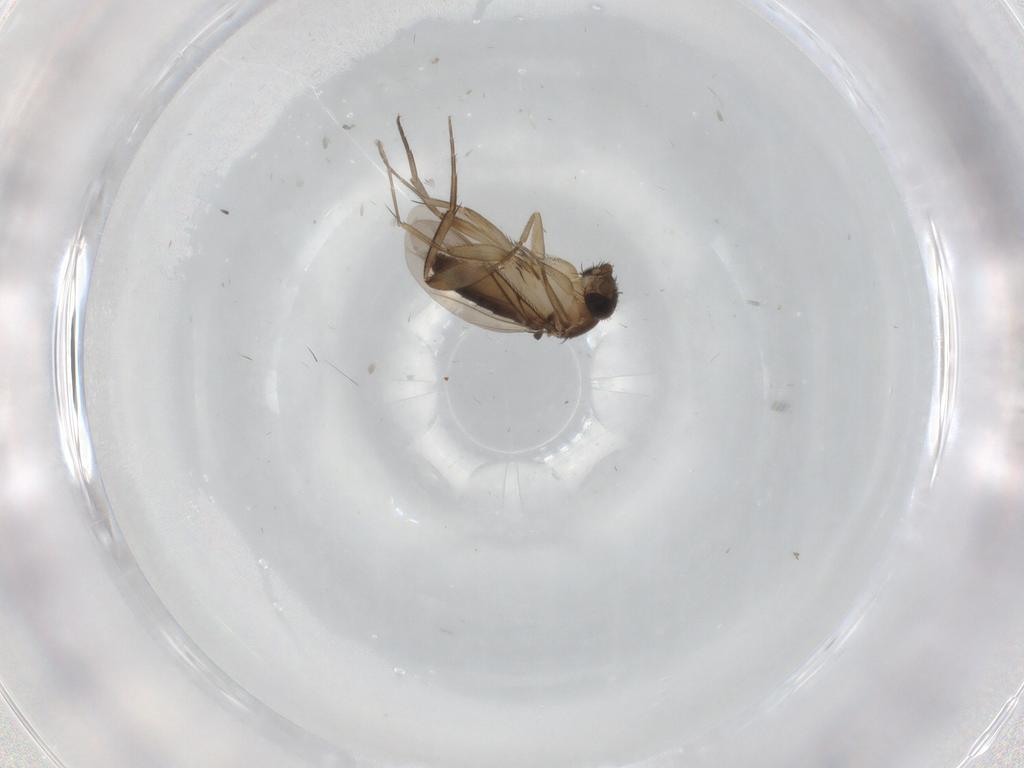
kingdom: Animalia
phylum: Arthropoda
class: Insecta
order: Diptera
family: Phoridae
